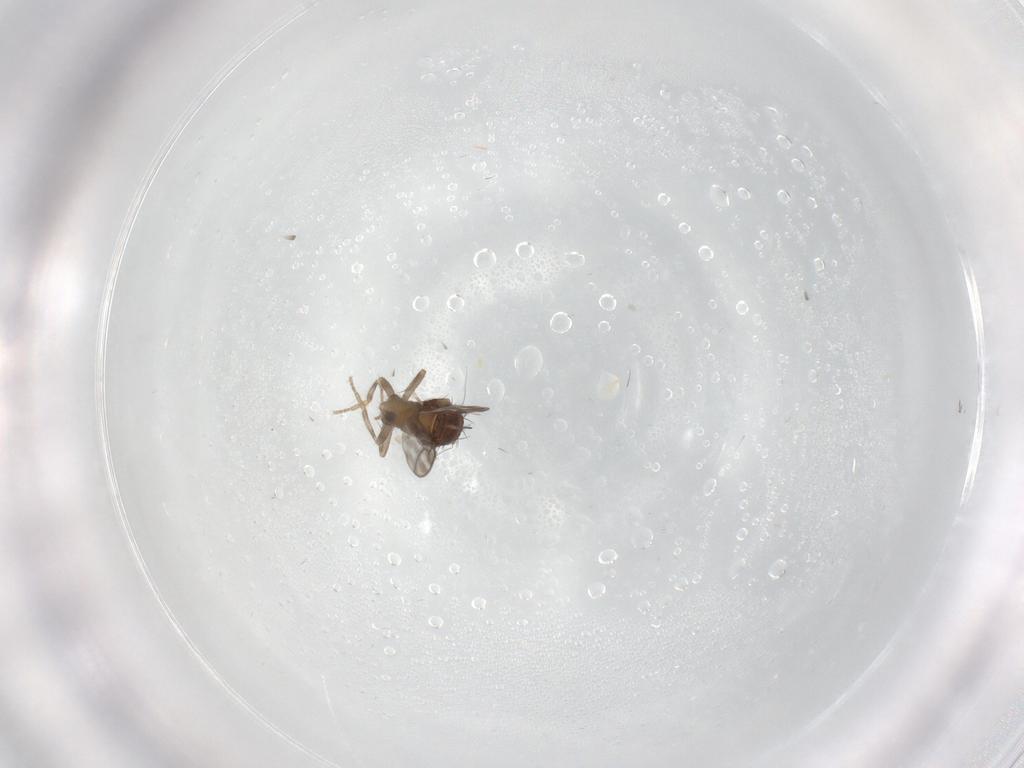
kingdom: Animalia
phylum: Arthropoda
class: Insecta
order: Diptera
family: Sphaeroceridae
